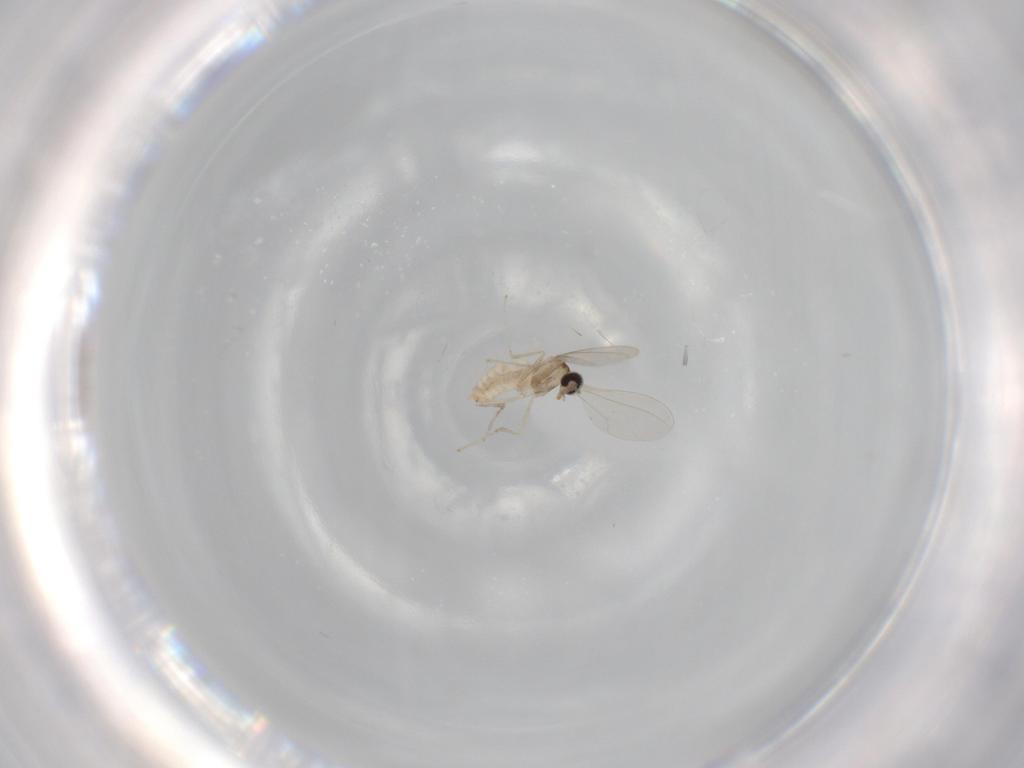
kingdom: Animalia
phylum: Arthropoda
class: Insecta
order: Diptera
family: Cecidomyiidae
